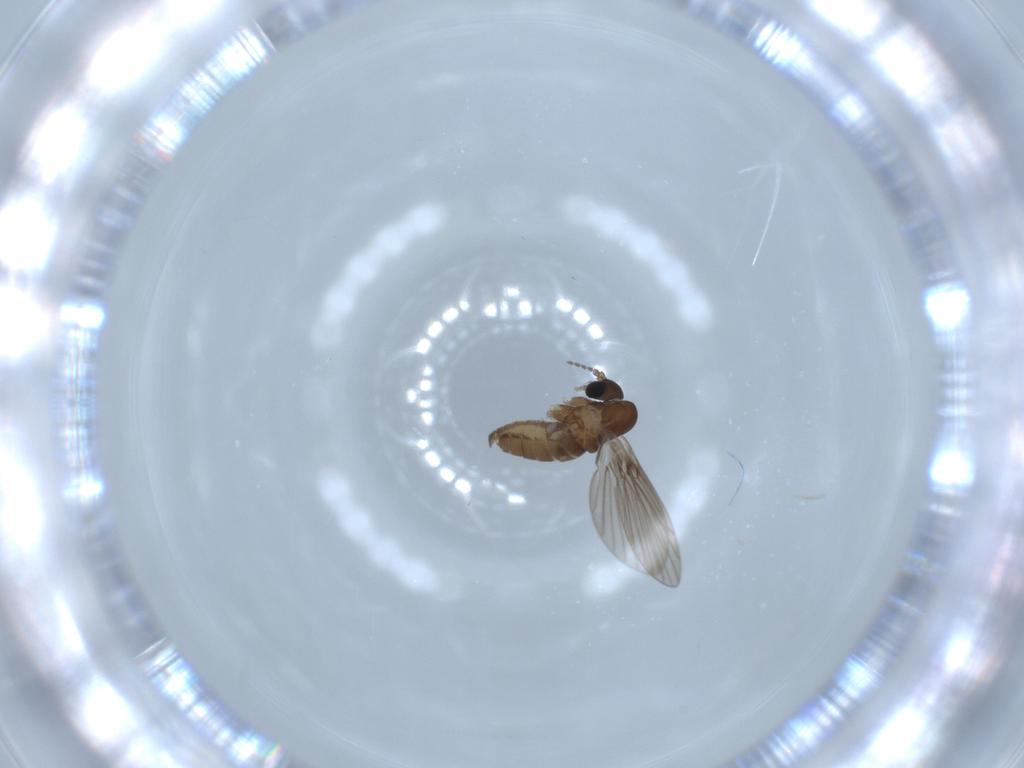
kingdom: Animalia
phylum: Arthropoda
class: Insecta
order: Diptera
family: Psychodidae
